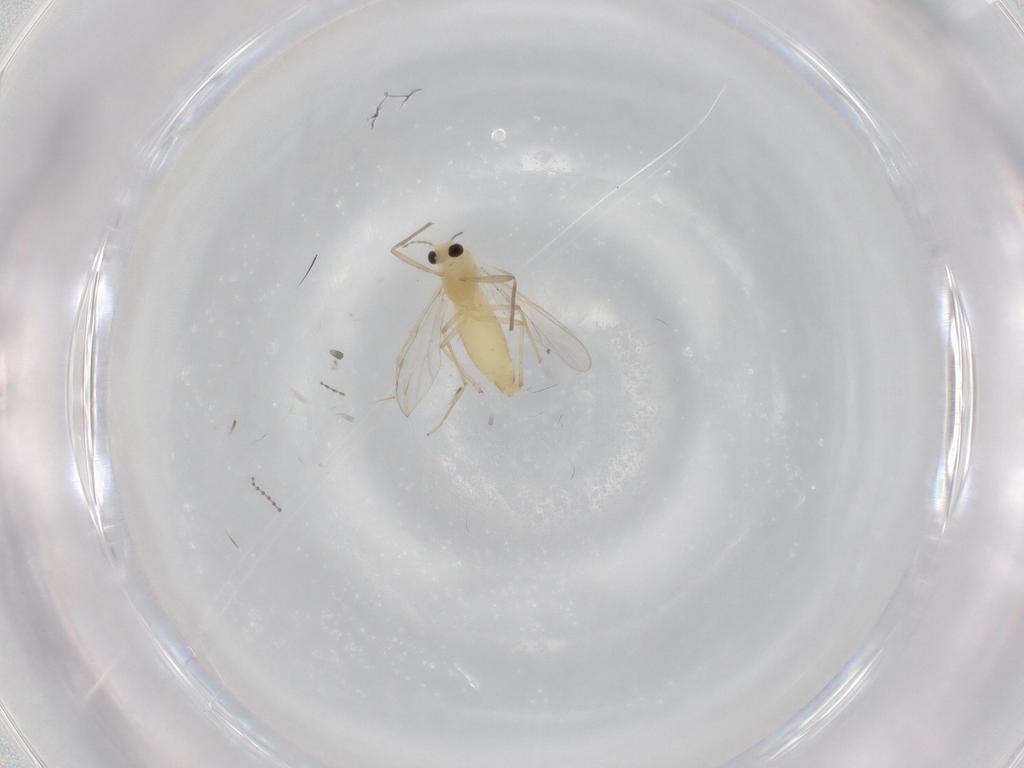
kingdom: Animalia
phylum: Arthropoda
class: Insecta
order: Diptera
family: Chironomidae
